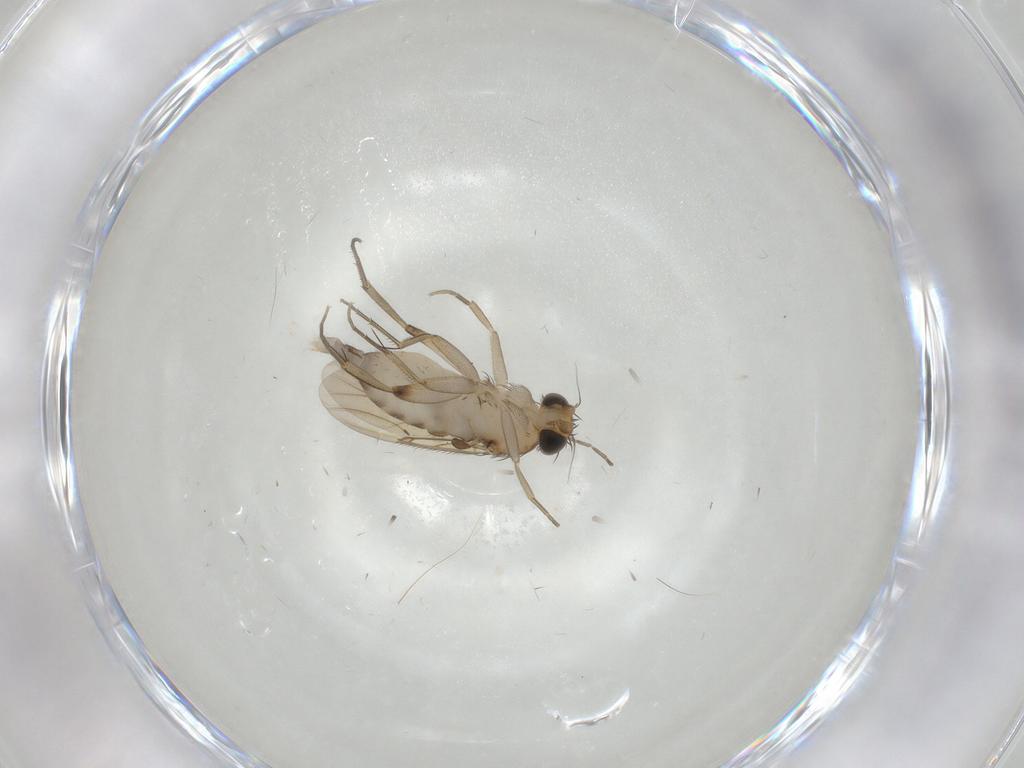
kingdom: Animalia
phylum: Arthropoda
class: Insecta
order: Diptera
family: Phoridae
